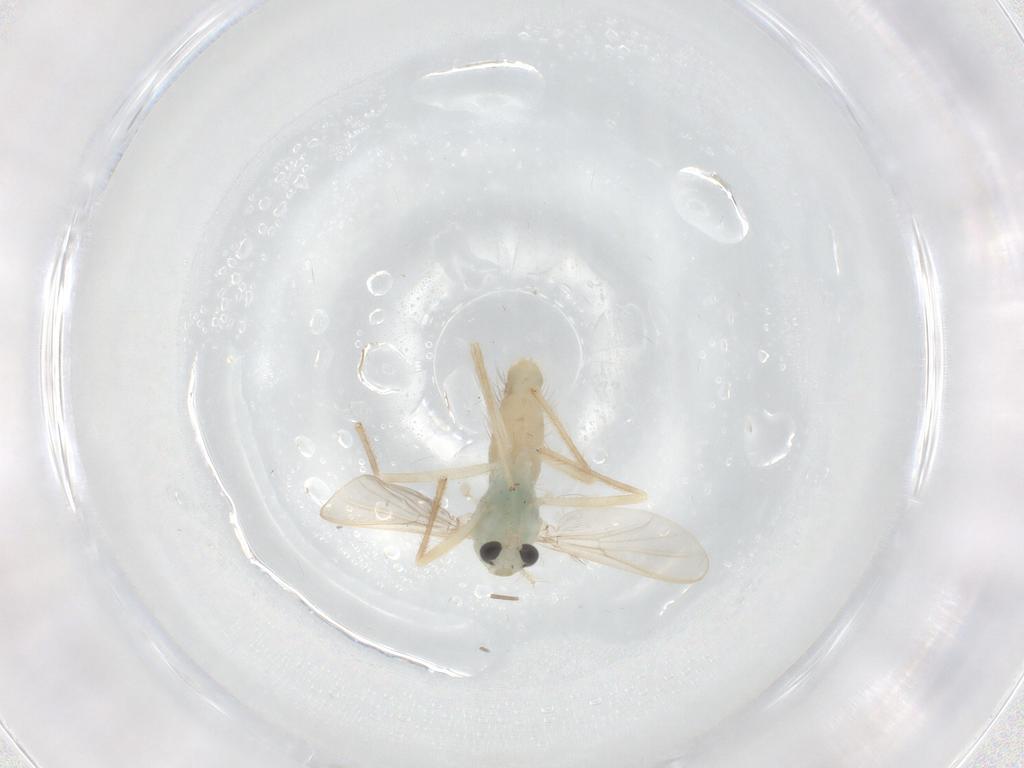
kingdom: Animalia
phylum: Arthropoda
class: Insecta
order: Diptera
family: Chironomidae
